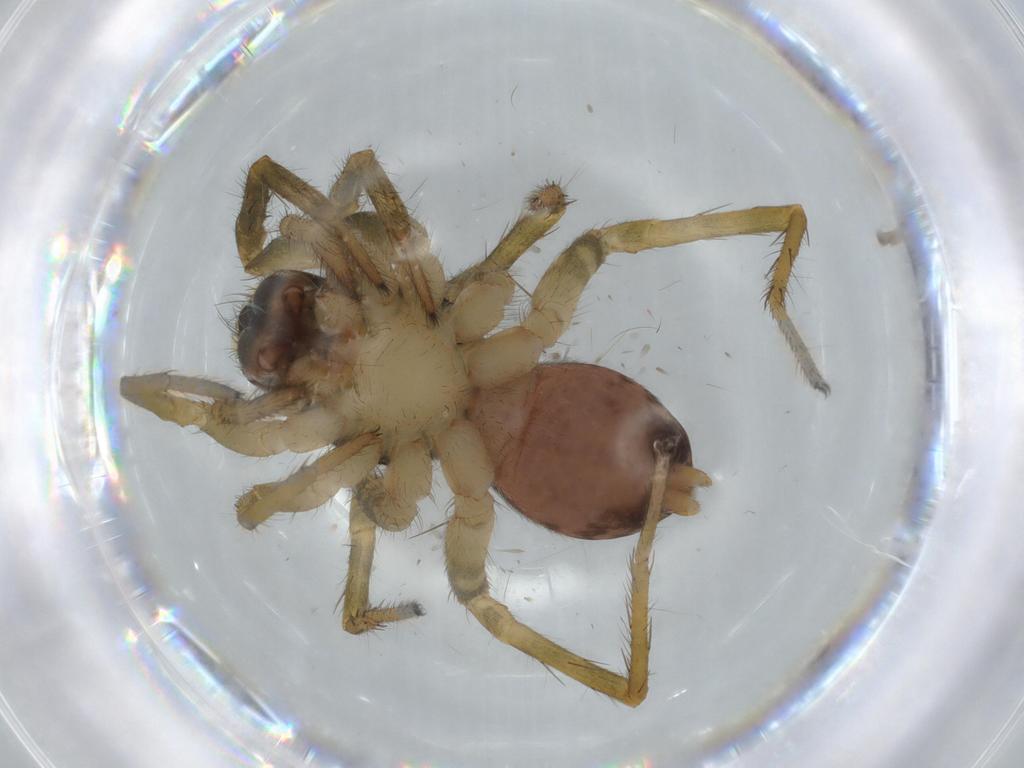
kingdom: Animalia
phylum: Arthropoda
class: Arachnida
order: Araneae
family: Lycosidae
